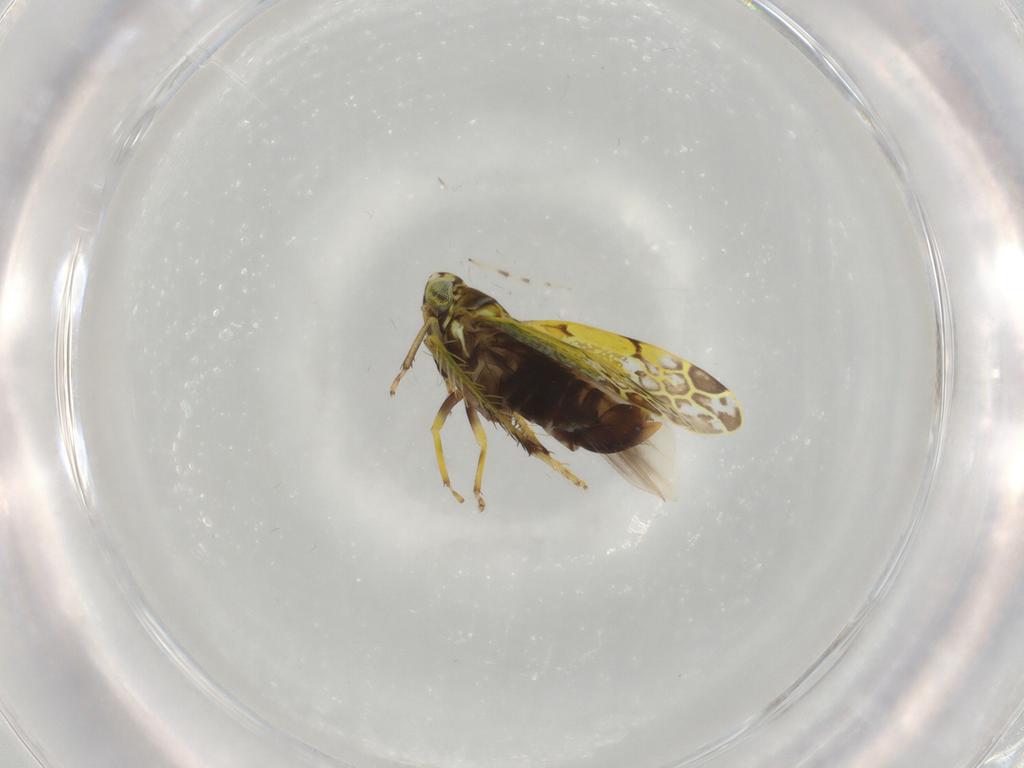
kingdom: Animalia
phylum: Arthropoda
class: Insecta
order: Hemiptera
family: Cicadellidae
